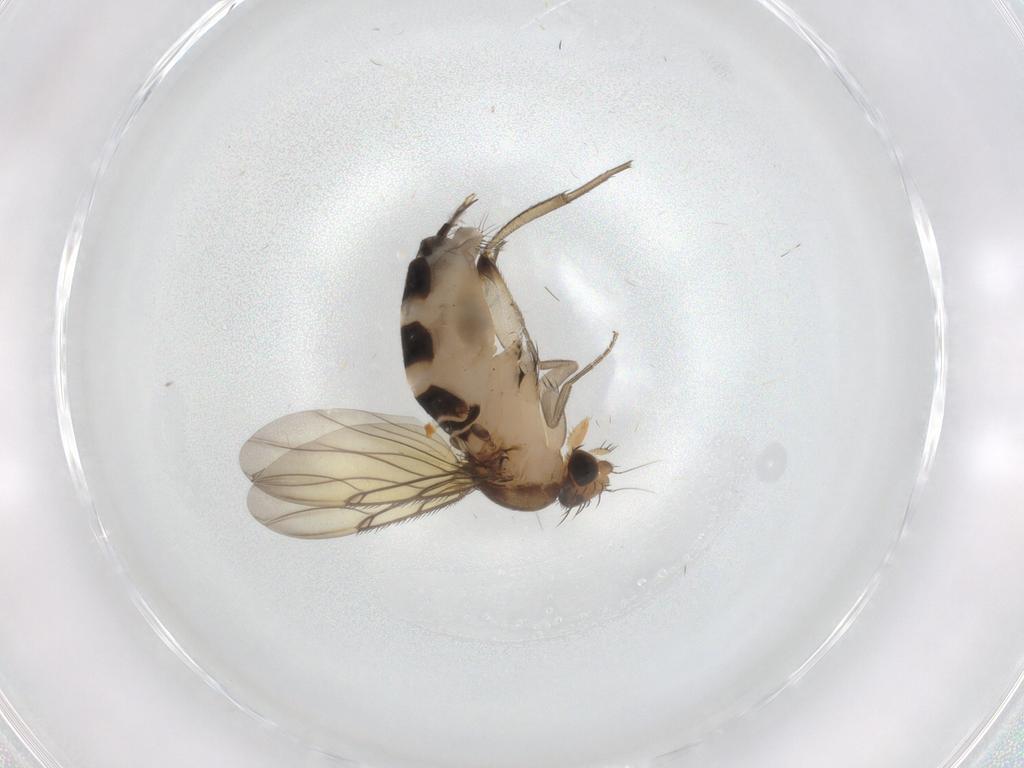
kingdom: Animalia
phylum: Arthropoda
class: Insecta
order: Diptera
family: Phoridae
